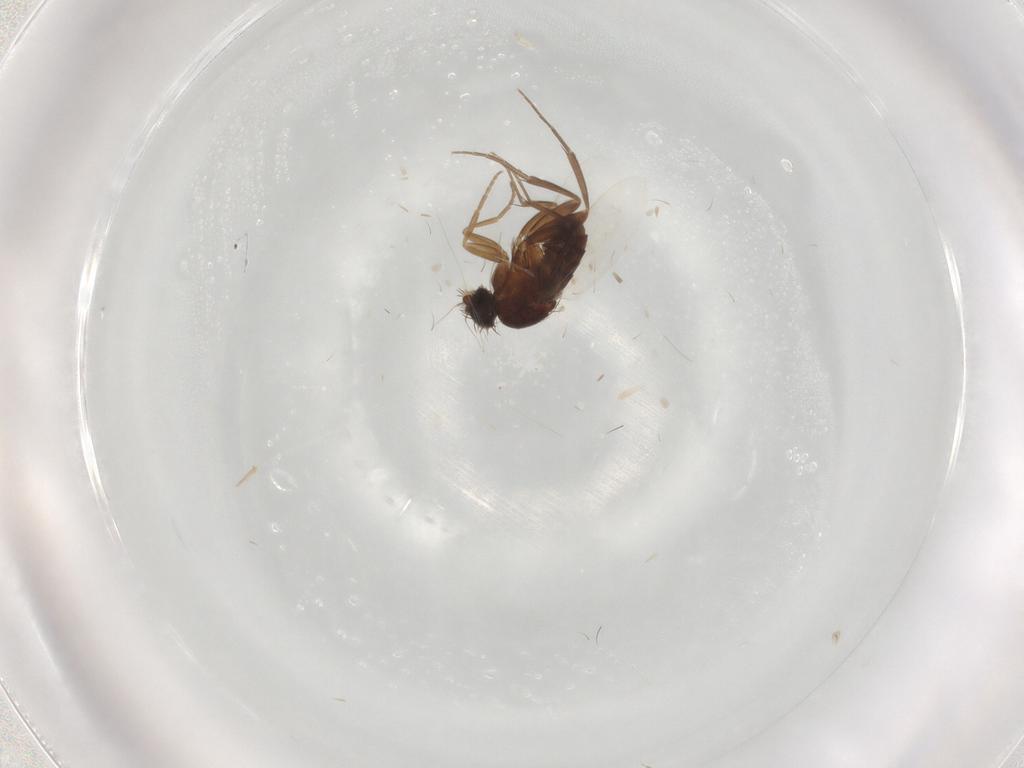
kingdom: Animalia
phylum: Arthropoda
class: Insecta
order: Diptera
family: Phoridae
